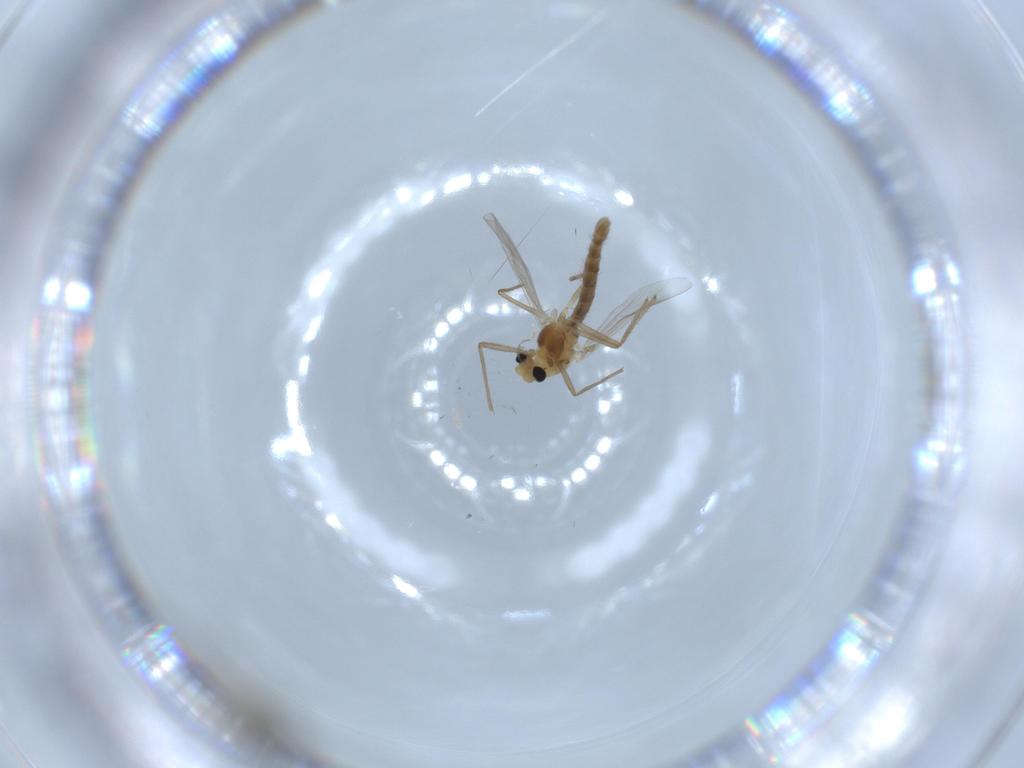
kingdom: Animalia
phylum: Arthropoda
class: Insecta
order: Diptera
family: Chironomidae
